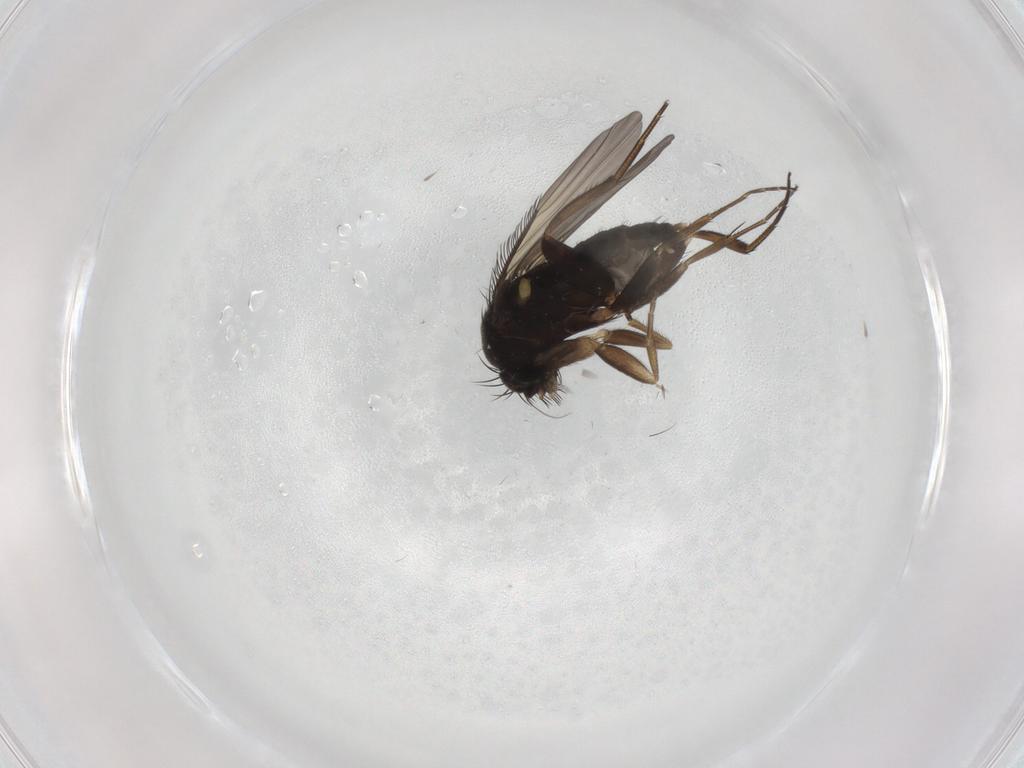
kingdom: Animalia
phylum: Arthropoda
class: Insecta
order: Diptera
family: Phoridae
